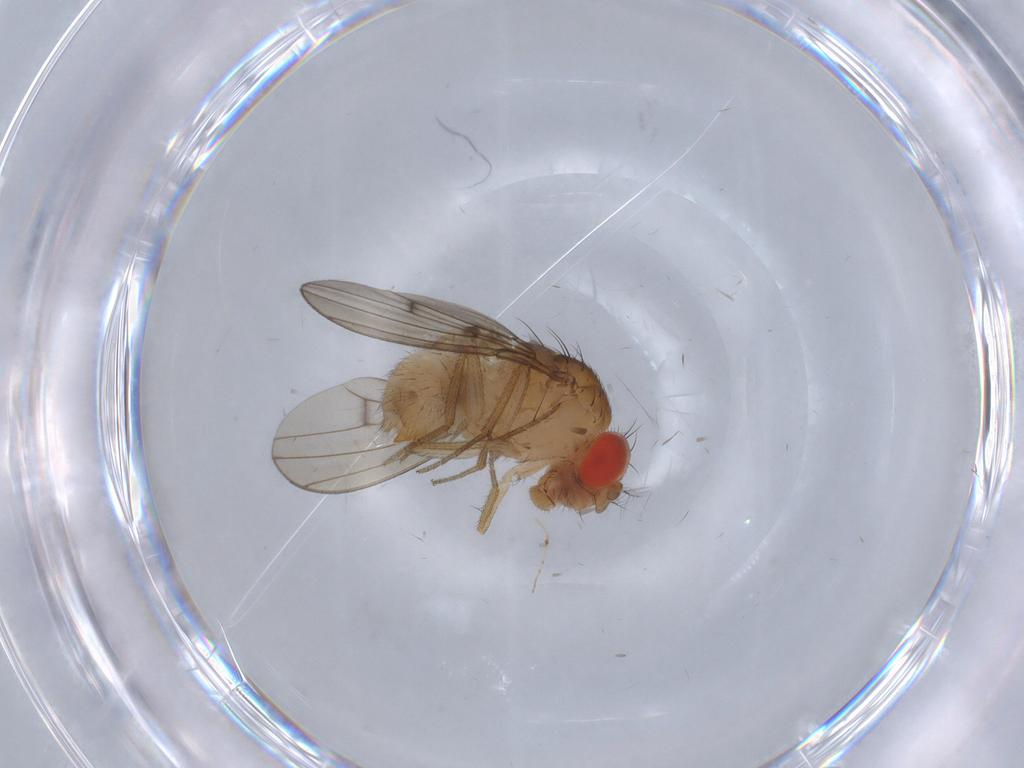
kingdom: Animalia
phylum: Arthropoda
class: Insecta
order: Diptera
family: Drosophilidae
